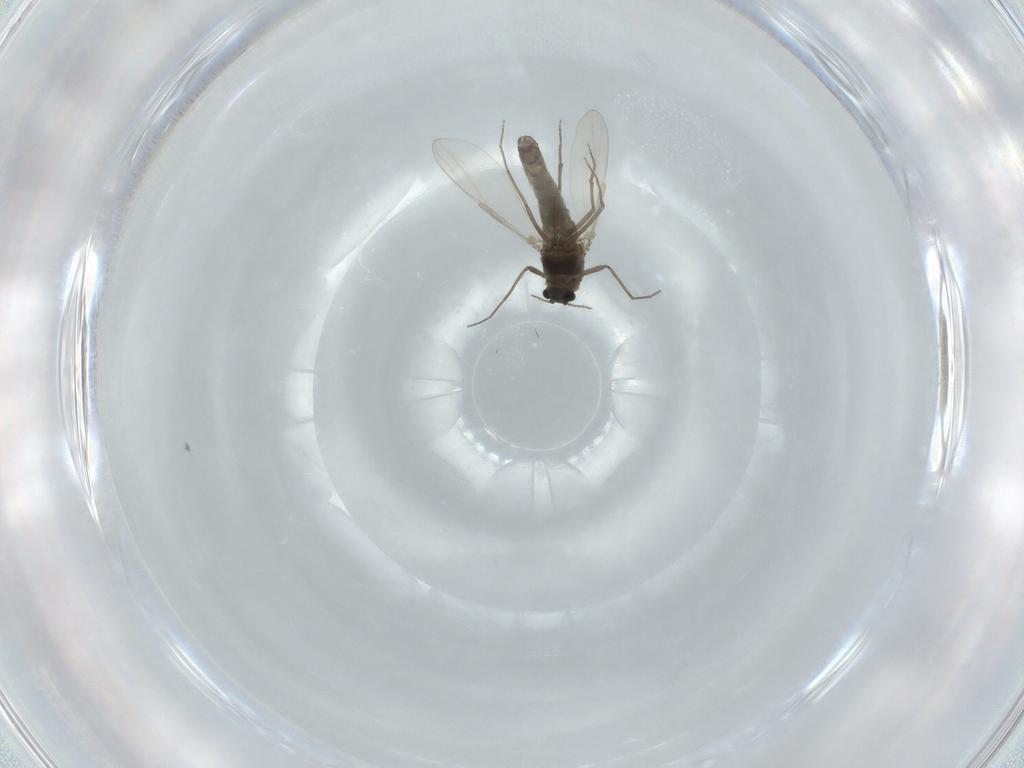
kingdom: Animalia
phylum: Arthropoda
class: Insecta
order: Diptera
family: Chironomidae
